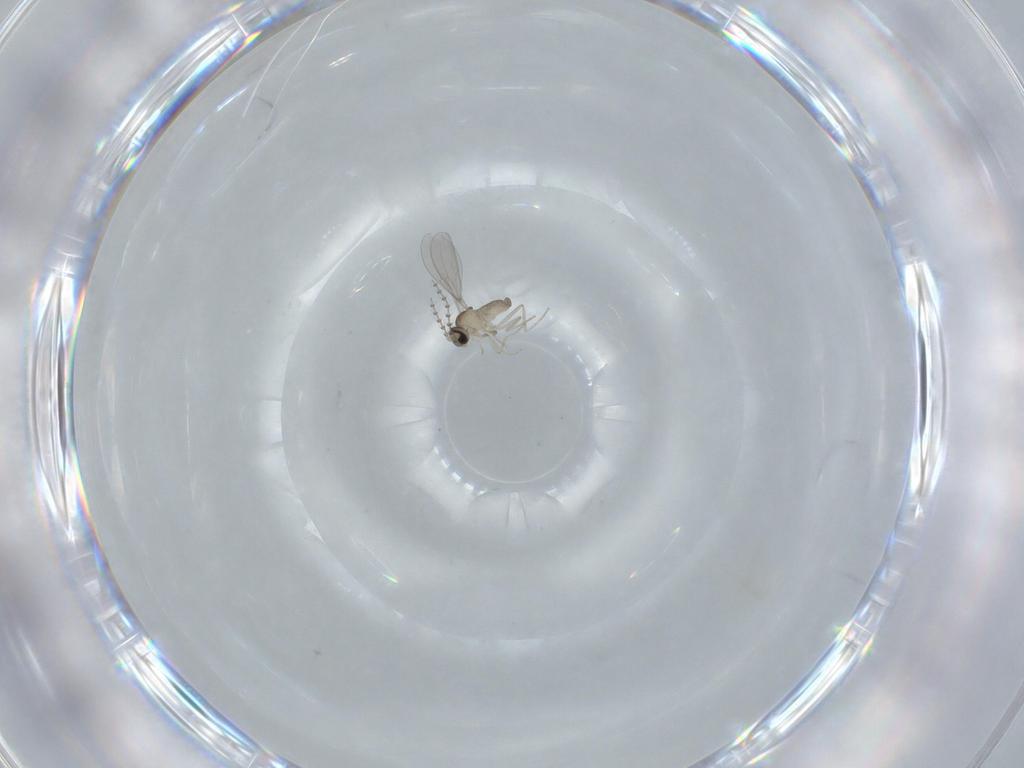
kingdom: Animalia
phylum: Arthropoda
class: Insecta
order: Diptera
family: Cecidomyiidae
